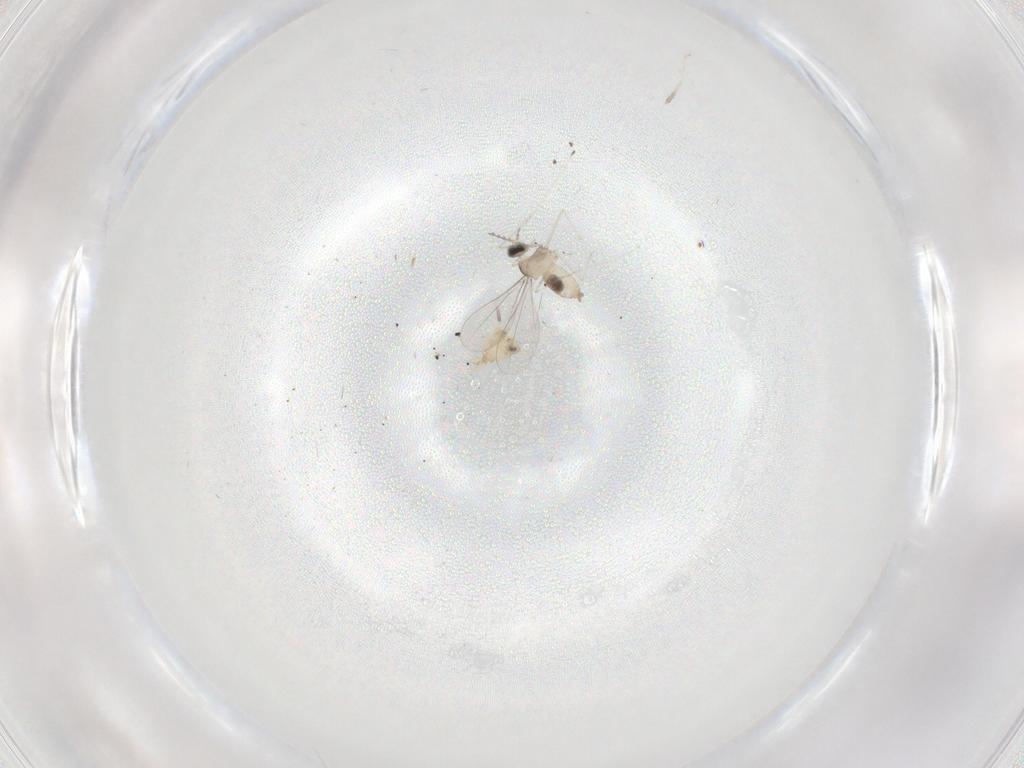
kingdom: Animalia
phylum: Arthropoda
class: Insecta
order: Diptera
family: Cecidomyiidae
